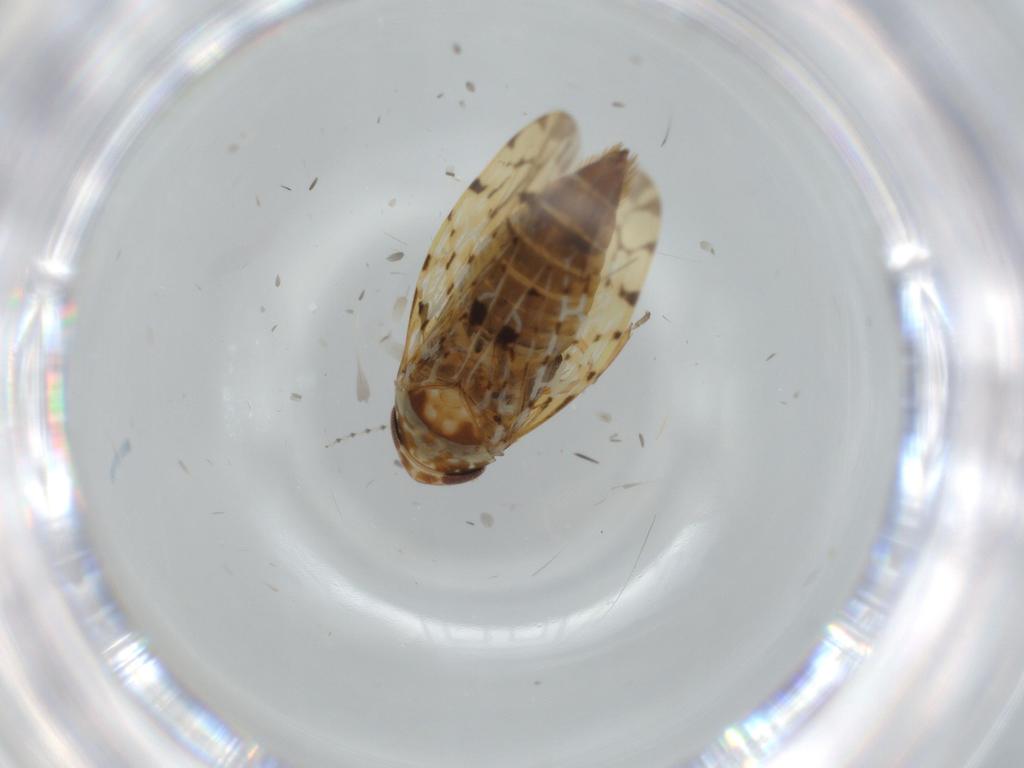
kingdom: Animalia
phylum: Arthropoda
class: Insecta
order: Hemiptera
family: Cicadellidae
